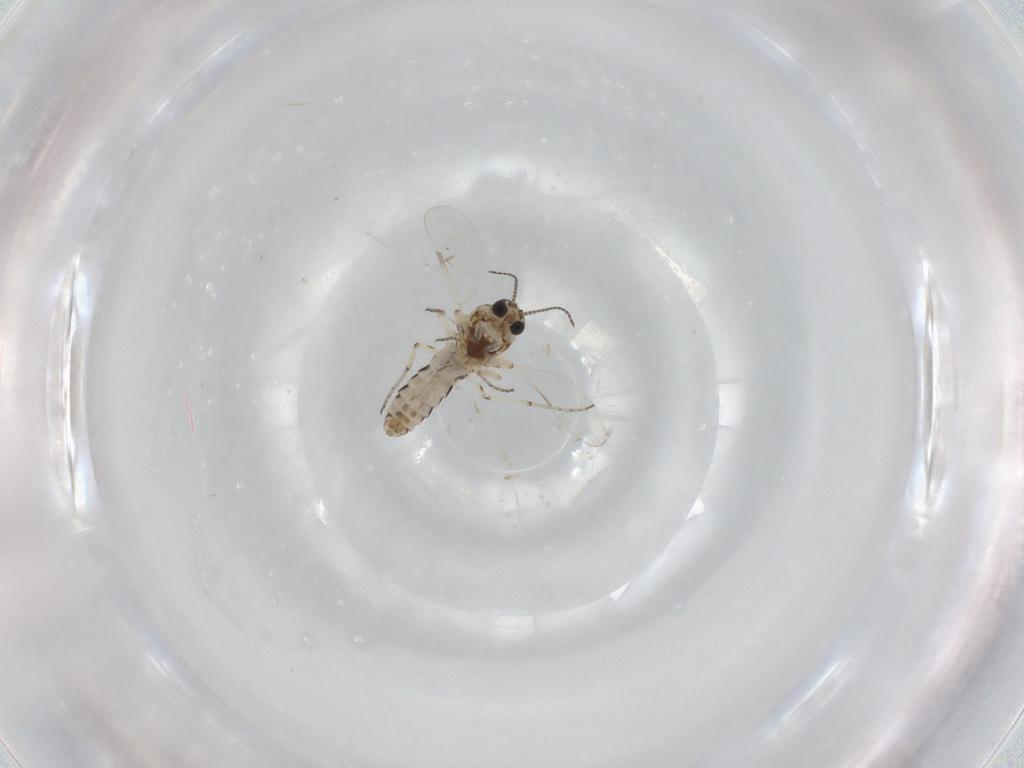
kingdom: Animalia
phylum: Arthropoda
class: Insecta
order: Diptera
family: Ceratopogonidae
